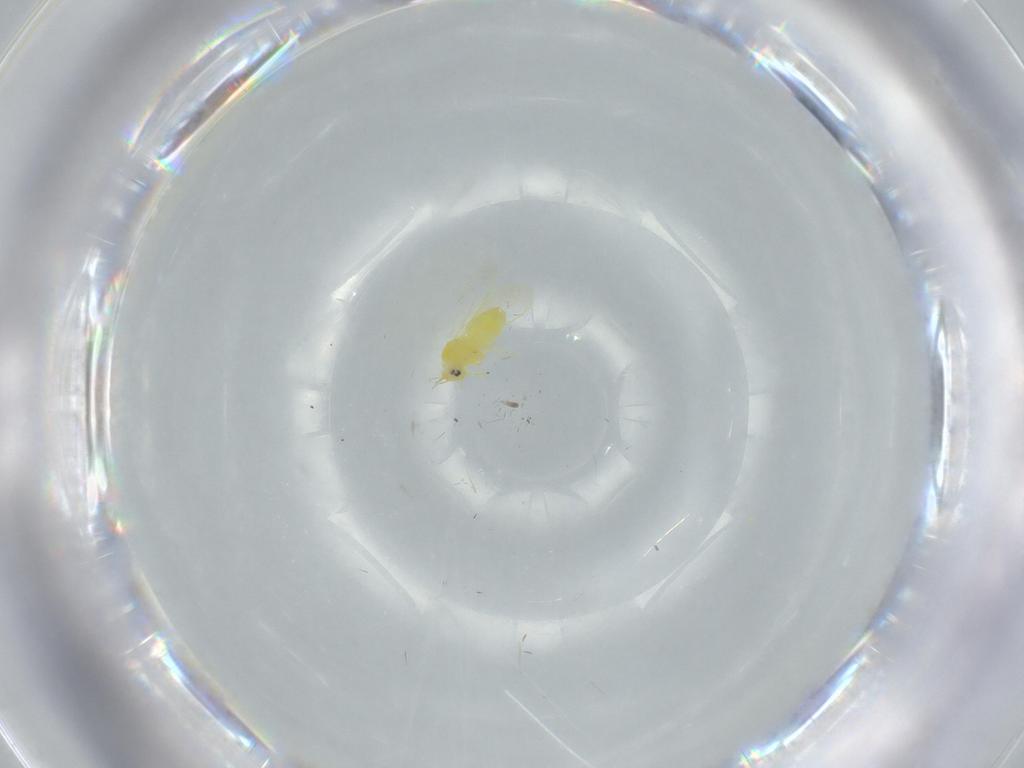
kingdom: Animalia
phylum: Arthropoda
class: Insecta
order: Hemiptera
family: Aleyrodidae
